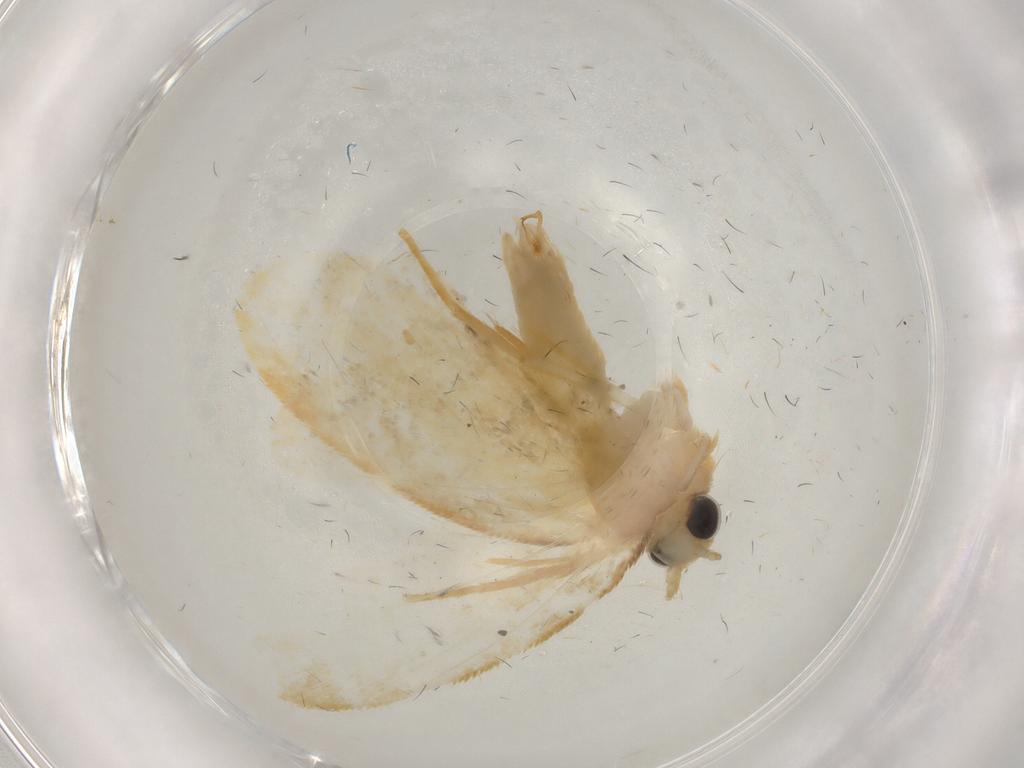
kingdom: Animalia
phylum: Arthropoda
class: Insecta
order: Lepidoptera
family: Psychidae
